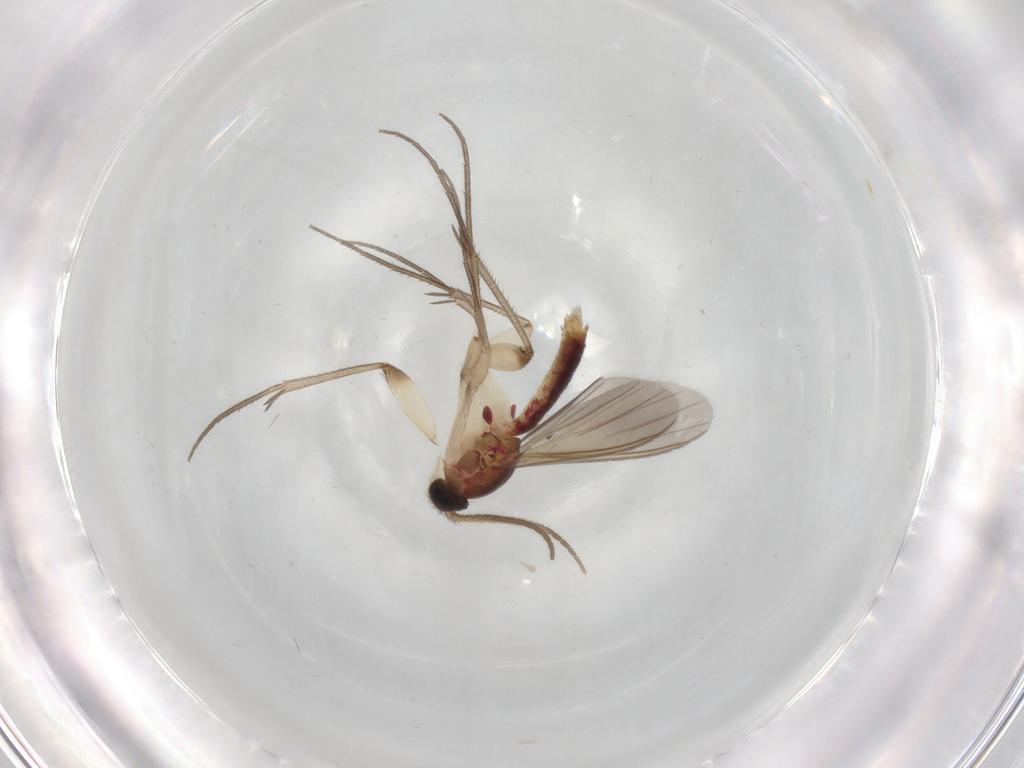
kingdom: Animalia
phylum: Arthropoda
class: Insecta
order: Diptera
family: Mycetophilidae
